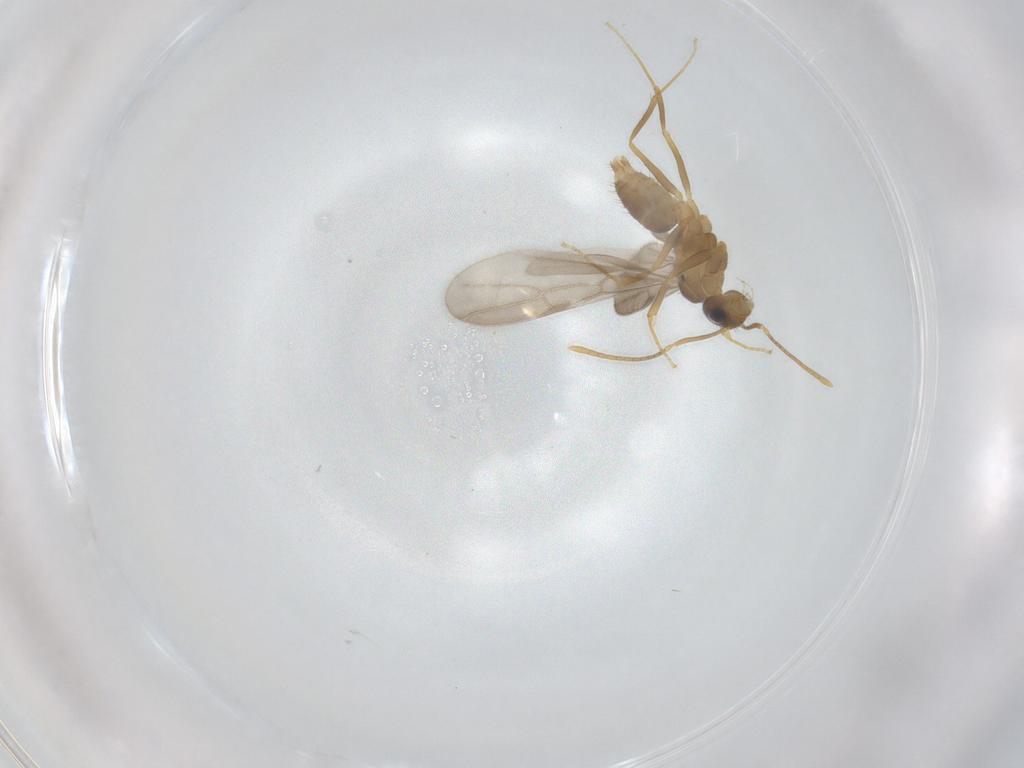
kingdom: Animalia
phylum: Arthropoda
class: Insecta
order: Hymenoptera
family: Formicidae
